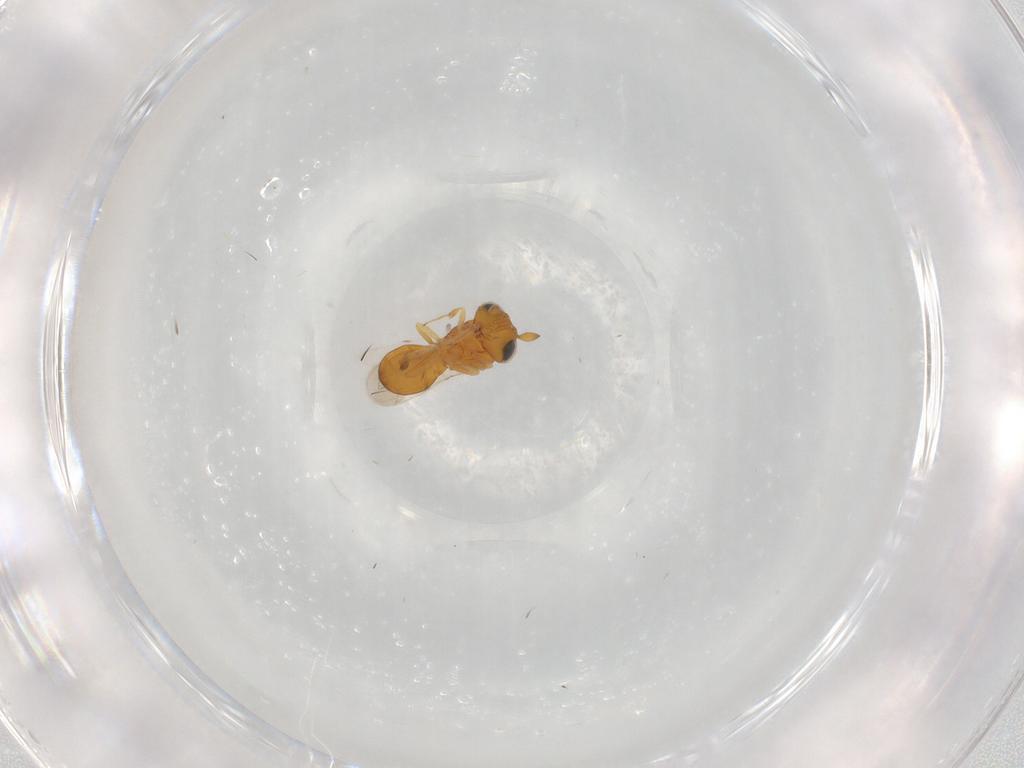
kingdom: Animalia
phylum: Arthropoda
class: Insecta
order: Hymenoptera
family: Scelionidae
